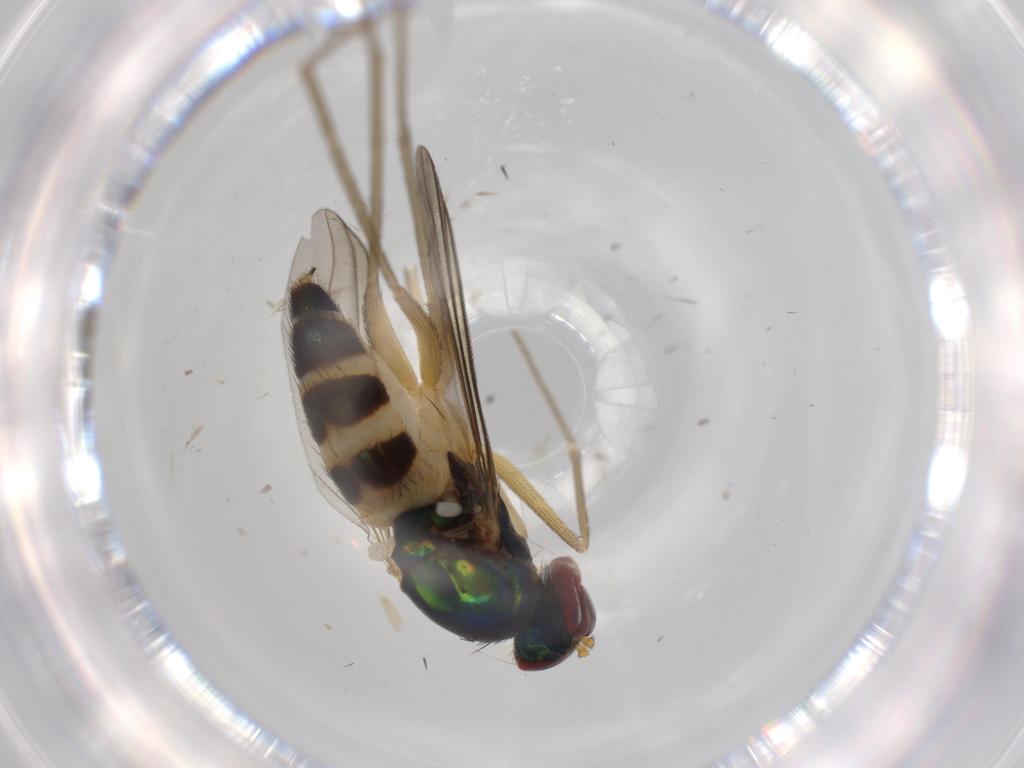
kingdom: Animalia
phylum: Arthropoda
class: Insecta
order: Diptera
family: Dolichopodidae
